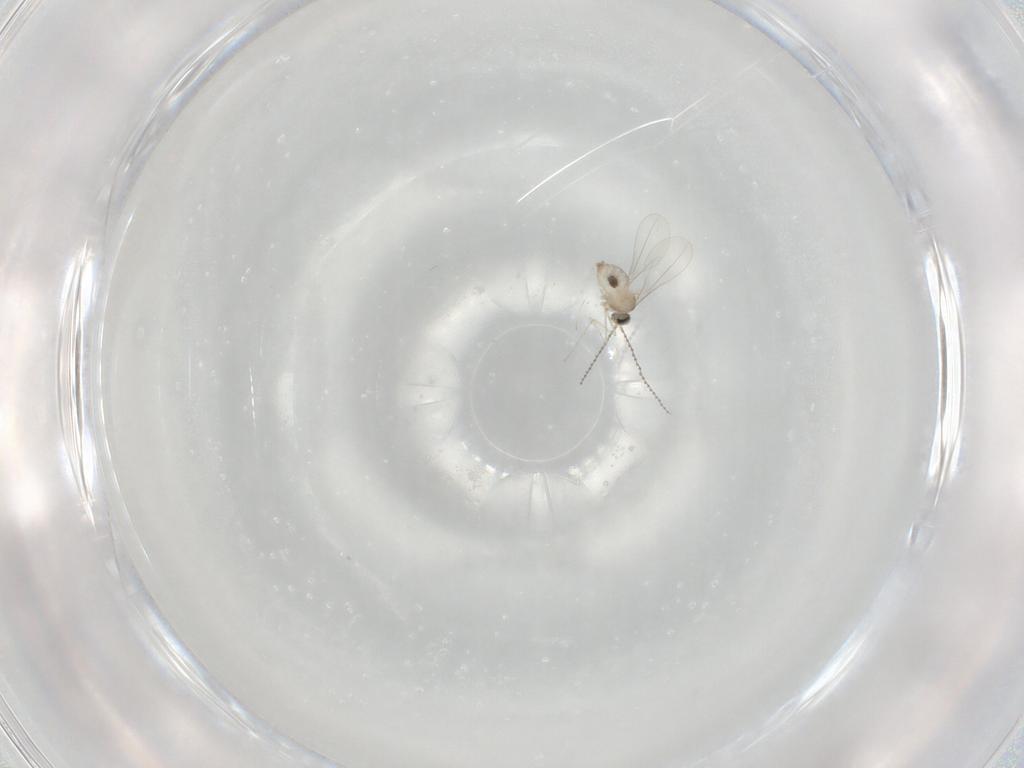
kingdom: Animalia
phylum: Arthropoda
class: Insecta
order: Diptera
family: Cecidomyiidae
